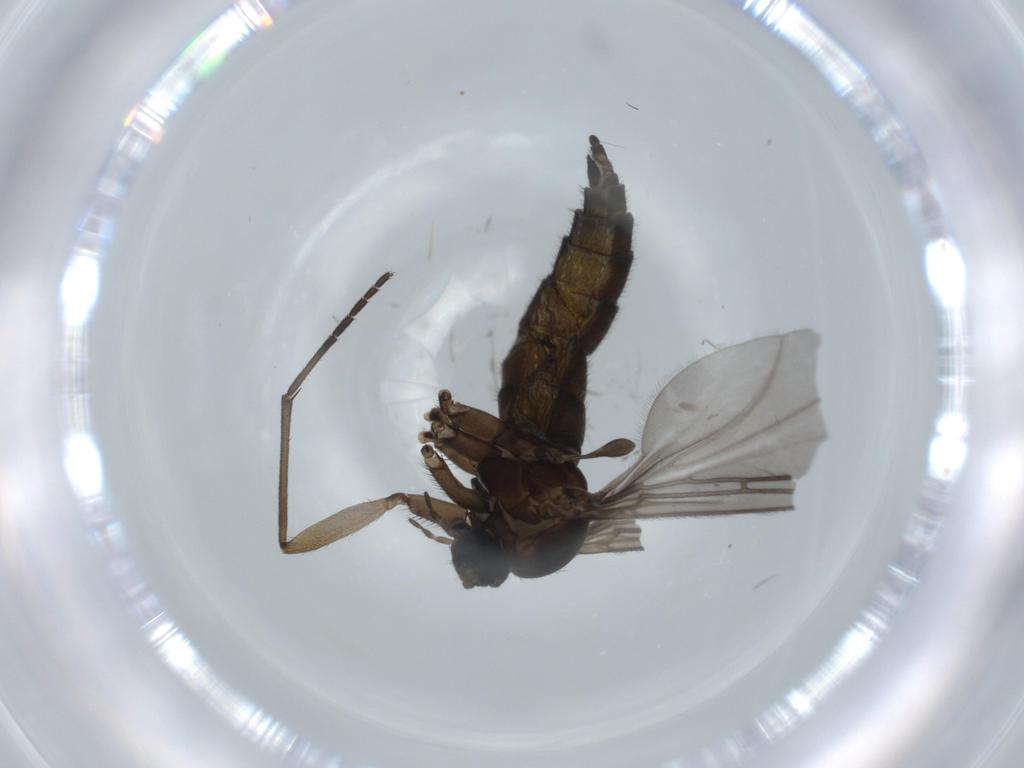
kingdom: Animalia
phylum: Arthropoda
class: Insecta
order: Diptera
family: Sciaridae
